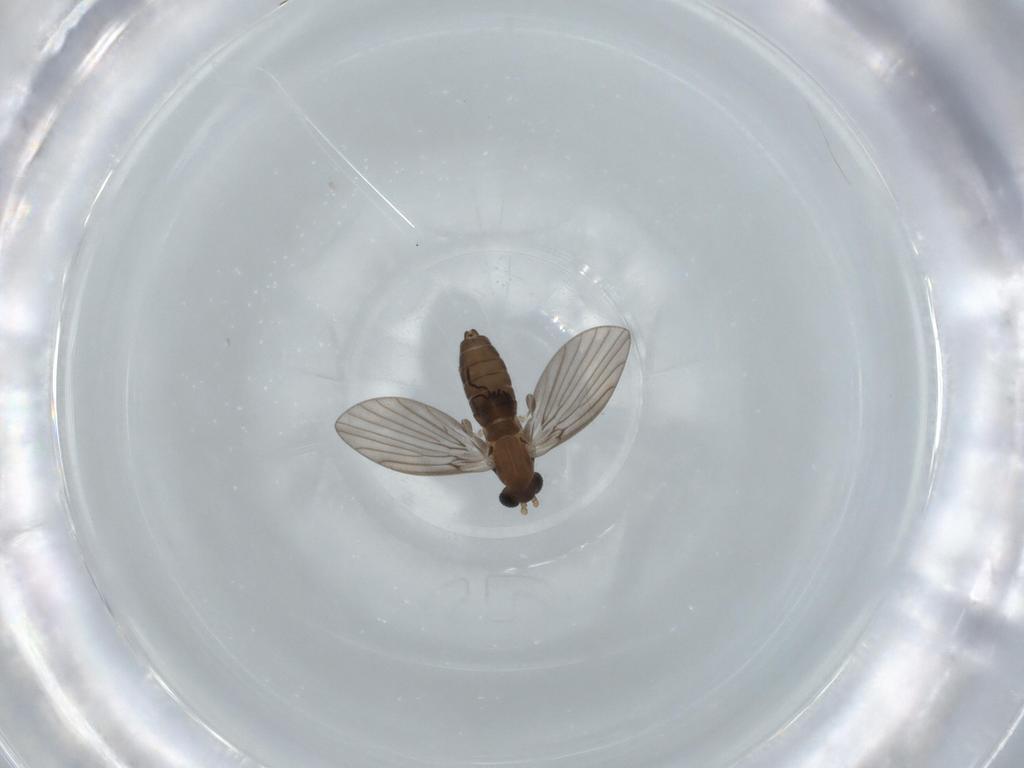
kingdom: Animalia
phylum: Arthropoda
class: Insecta
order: Diptera
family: Psychodidae
